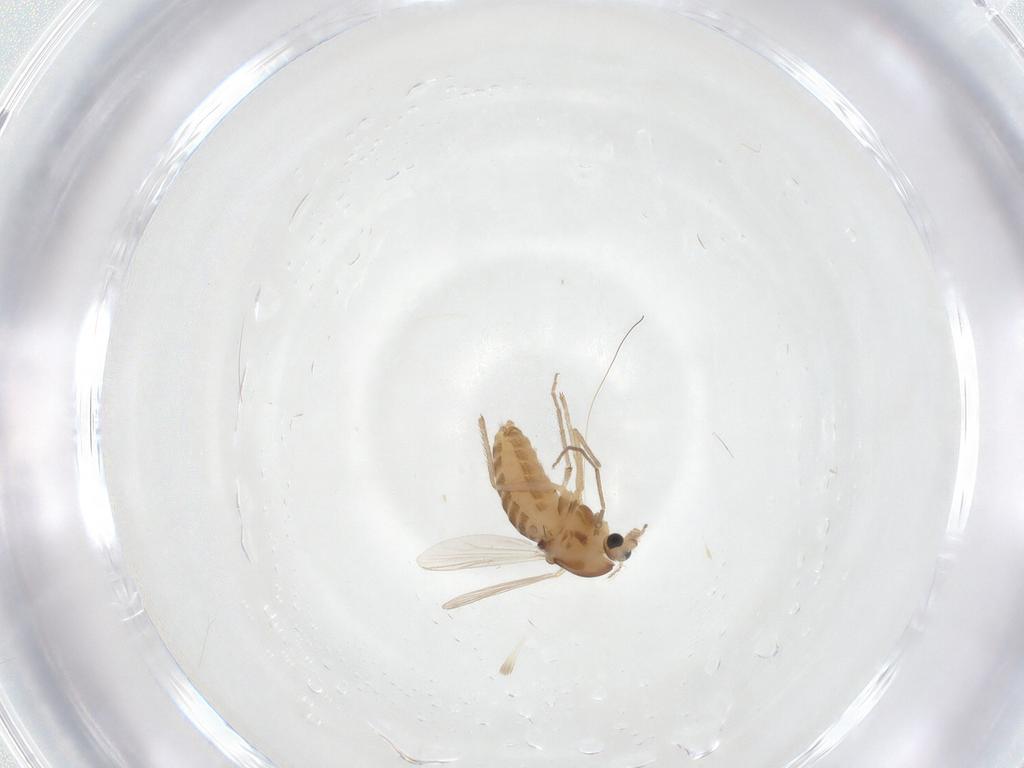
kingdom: Animalia
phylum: Arthropoda
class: Insecta
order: Diptera
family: Chironomidae
